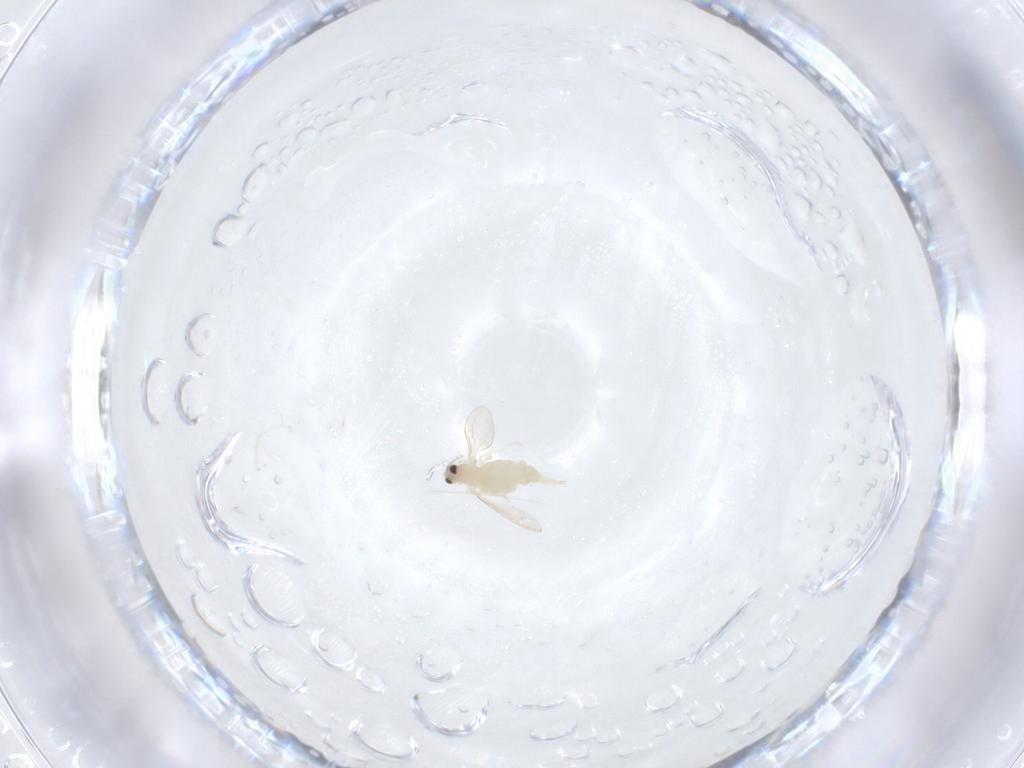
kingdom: Animalia
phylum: Arthropoda
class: Insecta
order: Diptera
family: Cecidomyiidae
